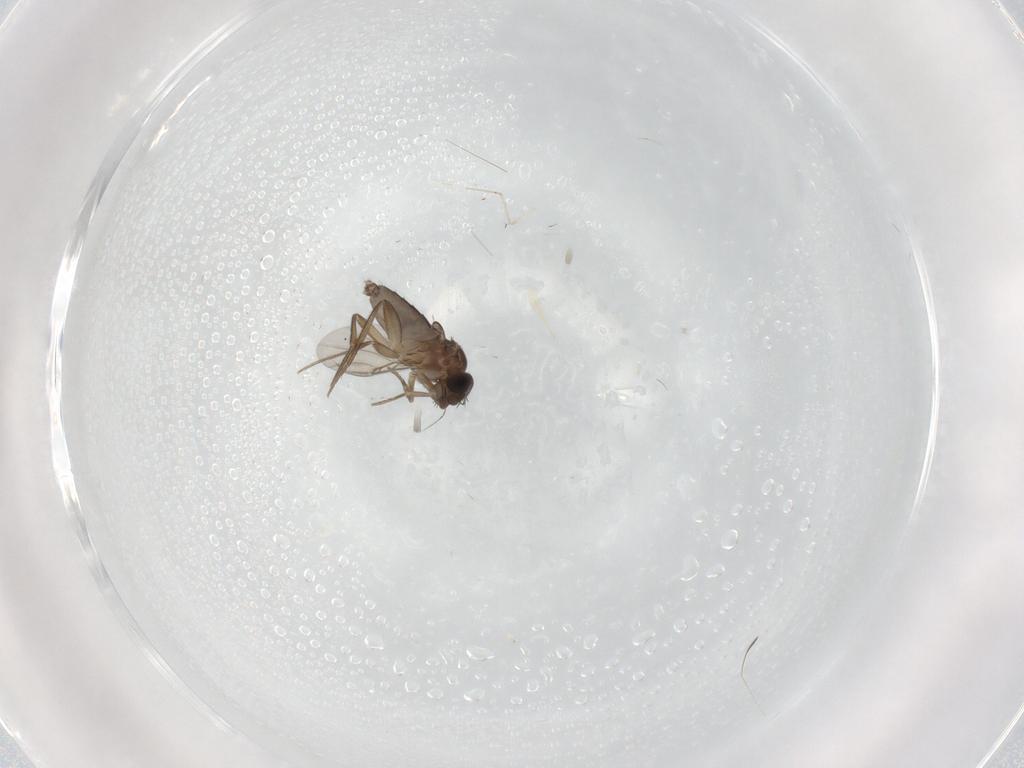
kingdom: Animalia
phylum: Arthropoda
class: Insecta
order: Diptera
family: Phoridae
